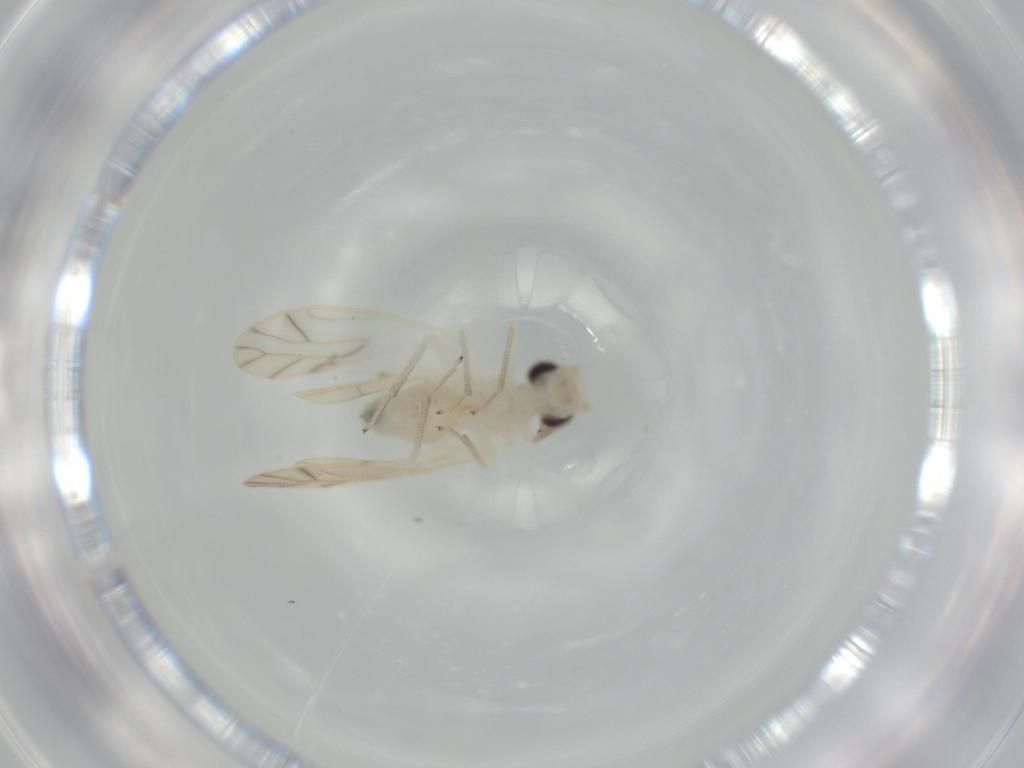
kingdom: Animalia
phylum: Arthropoda
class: Insecta
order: Psocodea
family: Caeciliusidae
